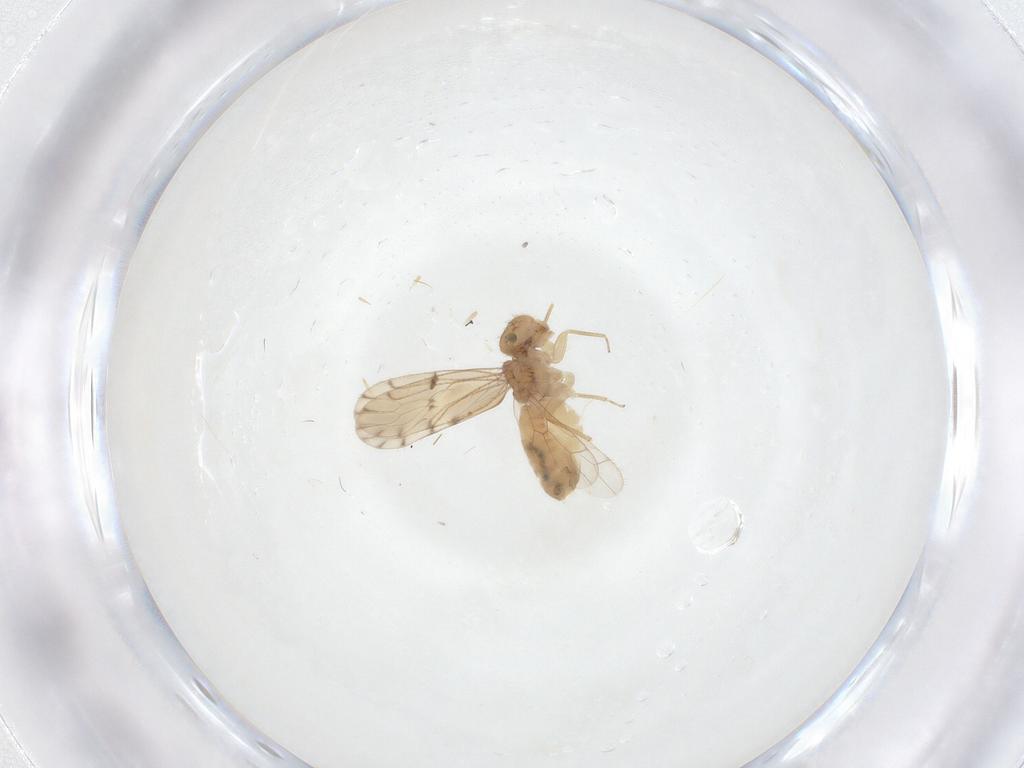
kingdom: Animalia
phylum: Arthropoda
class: Insecta
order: Psocodea
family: Ectopsocidae
